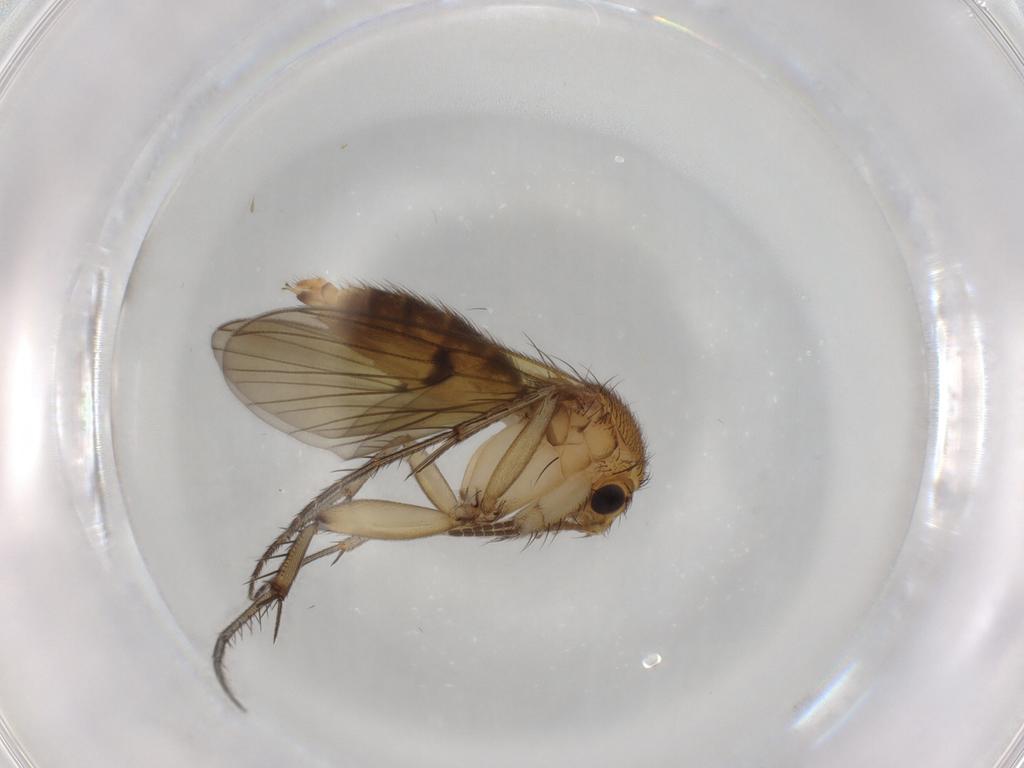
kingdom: Animalia
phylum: Arthropoda
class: Insecta
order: Diptera
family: Mycetophilidae
